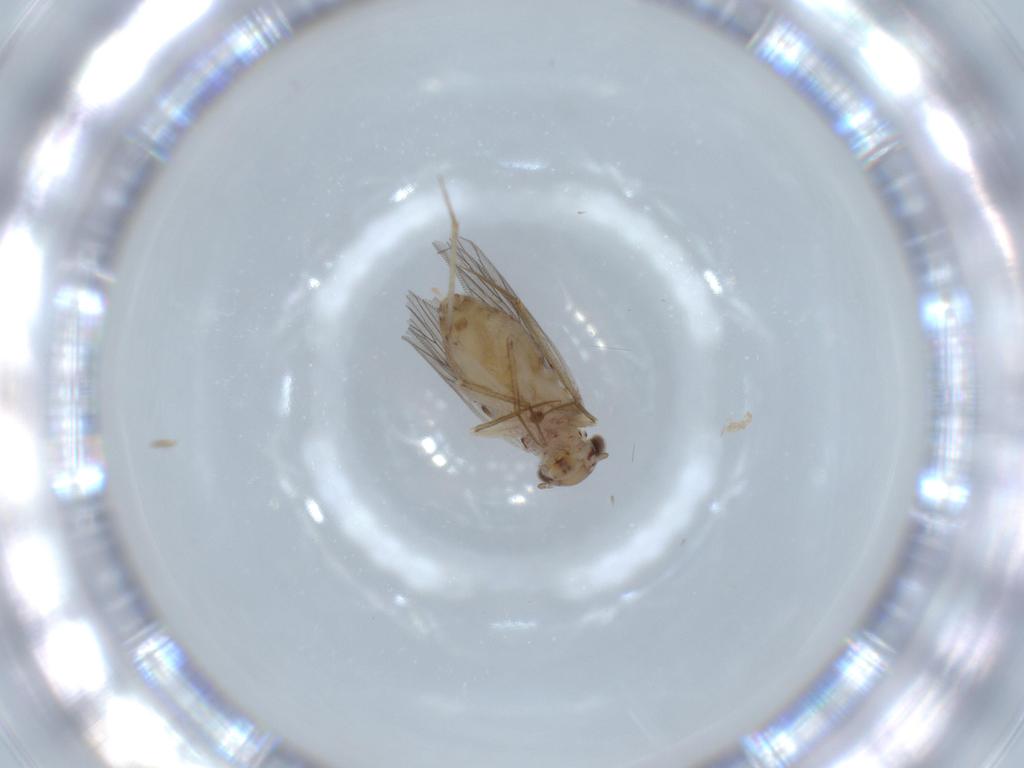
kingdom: Animalia
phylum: Arthropoda
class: Insecta
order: Psocodea
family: Lepidopsocidae
